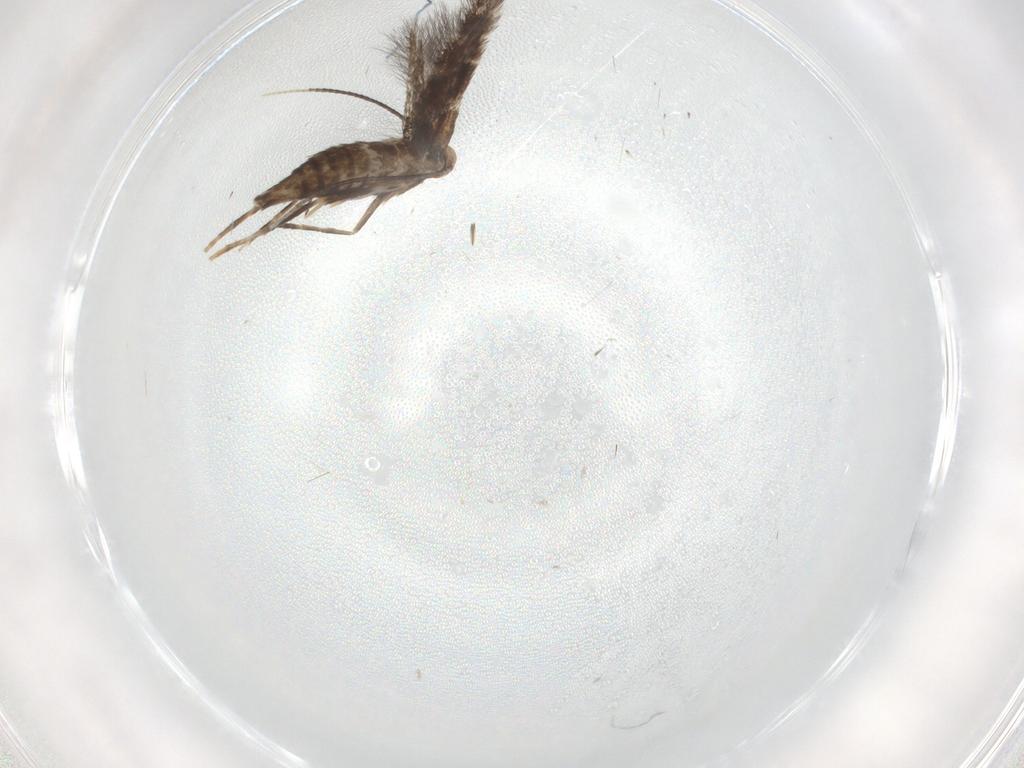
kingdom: Animalia
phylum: Arthropoda
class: Insecta
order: Lepidoptera
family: Gracillariidae
